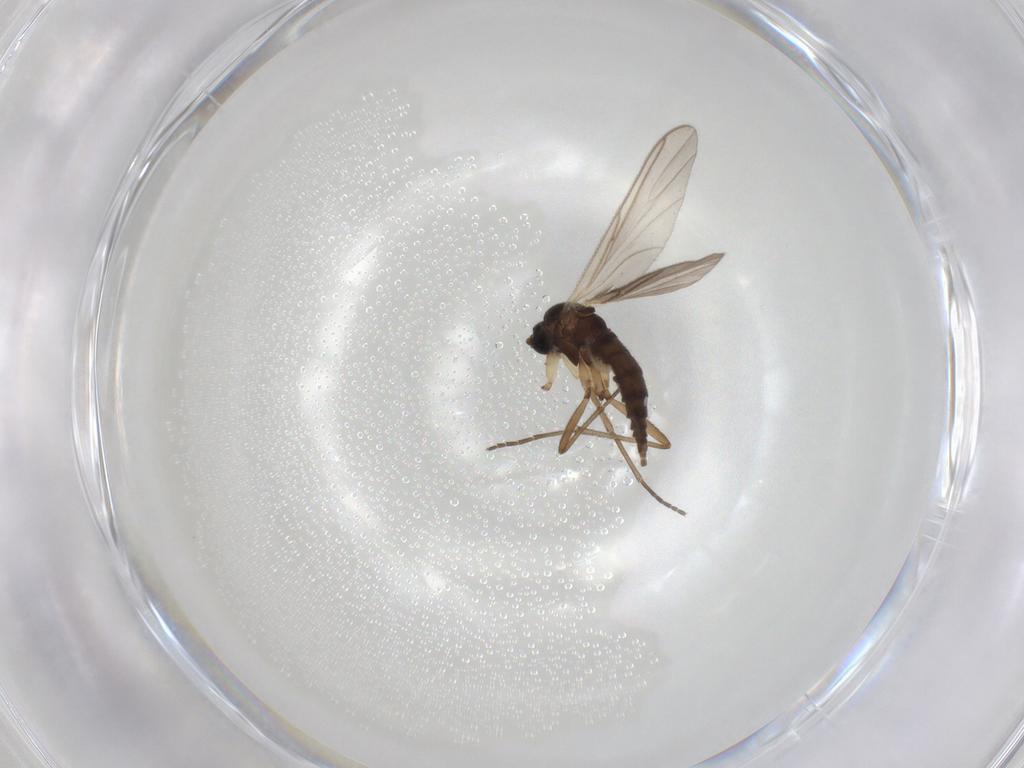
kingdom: Animalia
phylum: Arthropoda
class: Insecta
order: Diptera
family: Sciaridae
